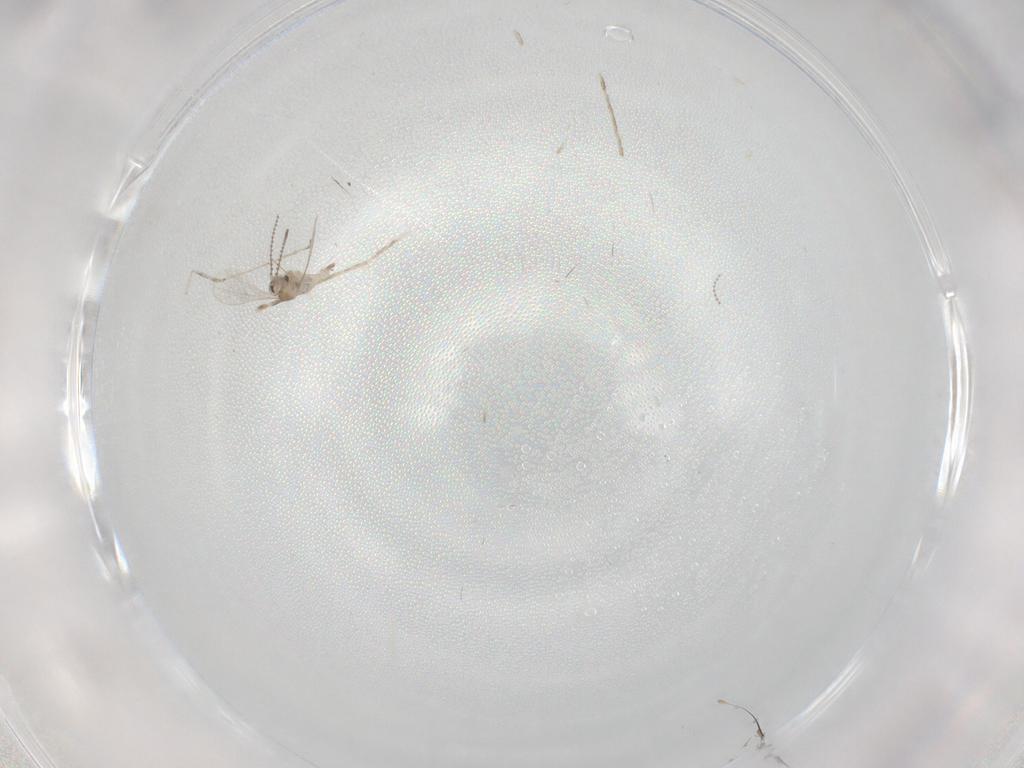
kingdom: Animalia
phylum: Arthropoda
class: Insecta
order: Diptera
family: Cecidomyiidae
